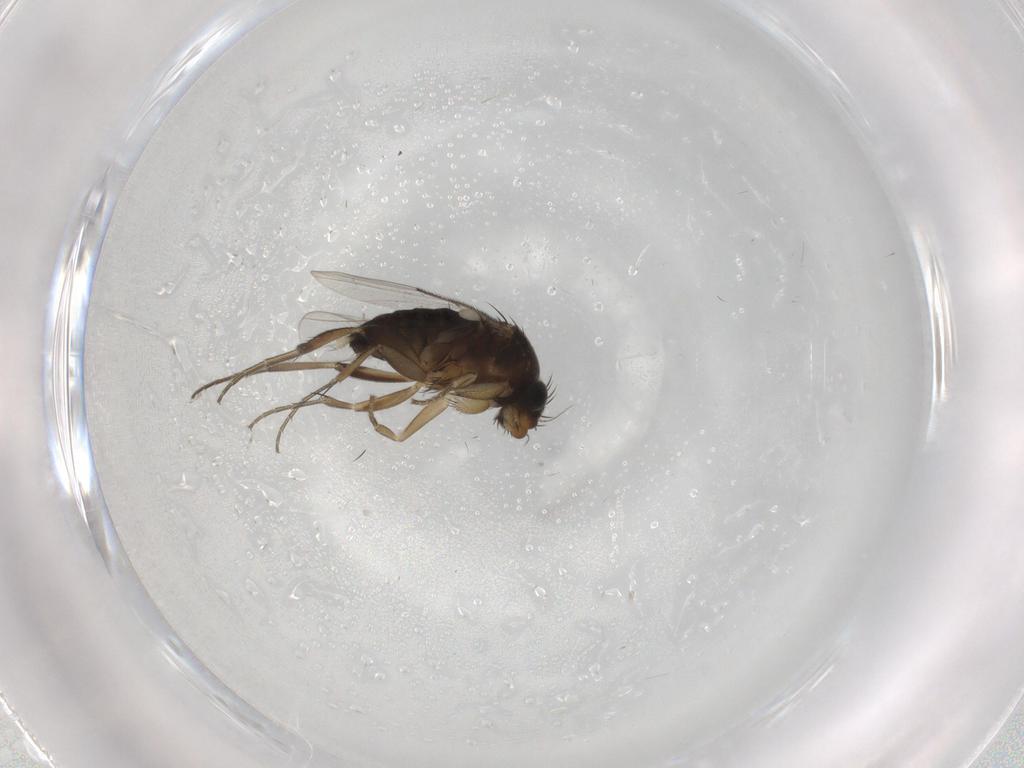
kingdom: Animalia
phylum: Arthropoda
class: Insecta
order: Diptera
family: Phoridae
